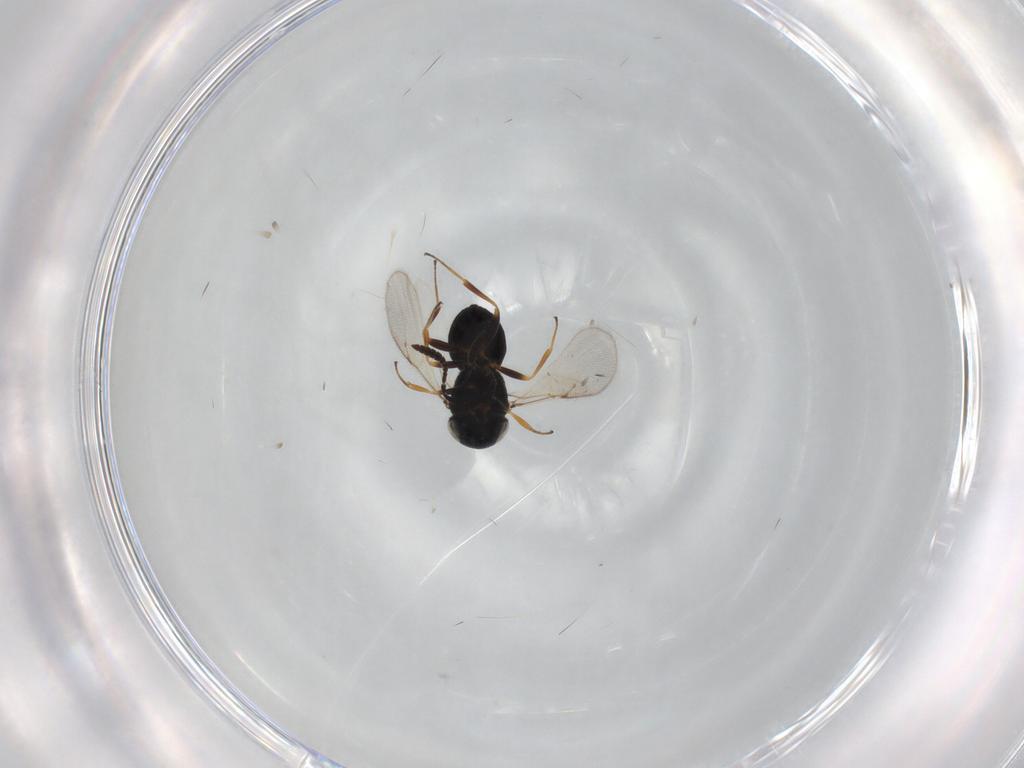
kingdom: Animalia
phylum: Arthropoda
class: Insecta
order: Hymenoptera
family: Scelionidae
